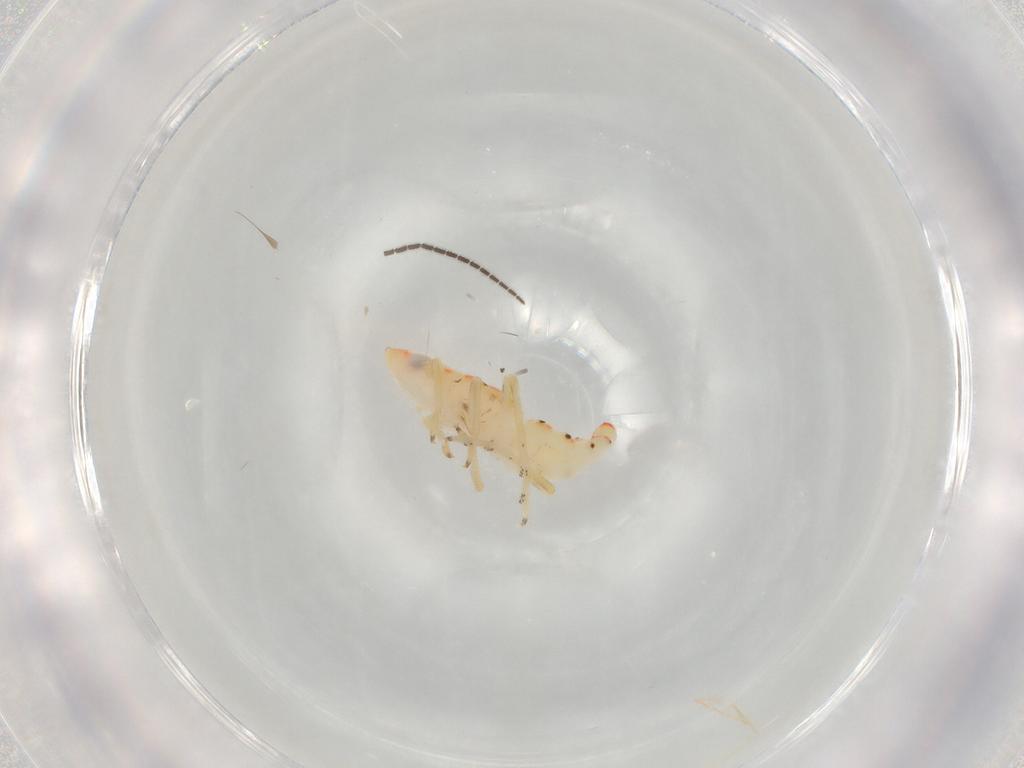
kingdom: Animalia
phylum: Arthropoda
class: Insecta
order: Hemiptera
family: Tropiduchidae
